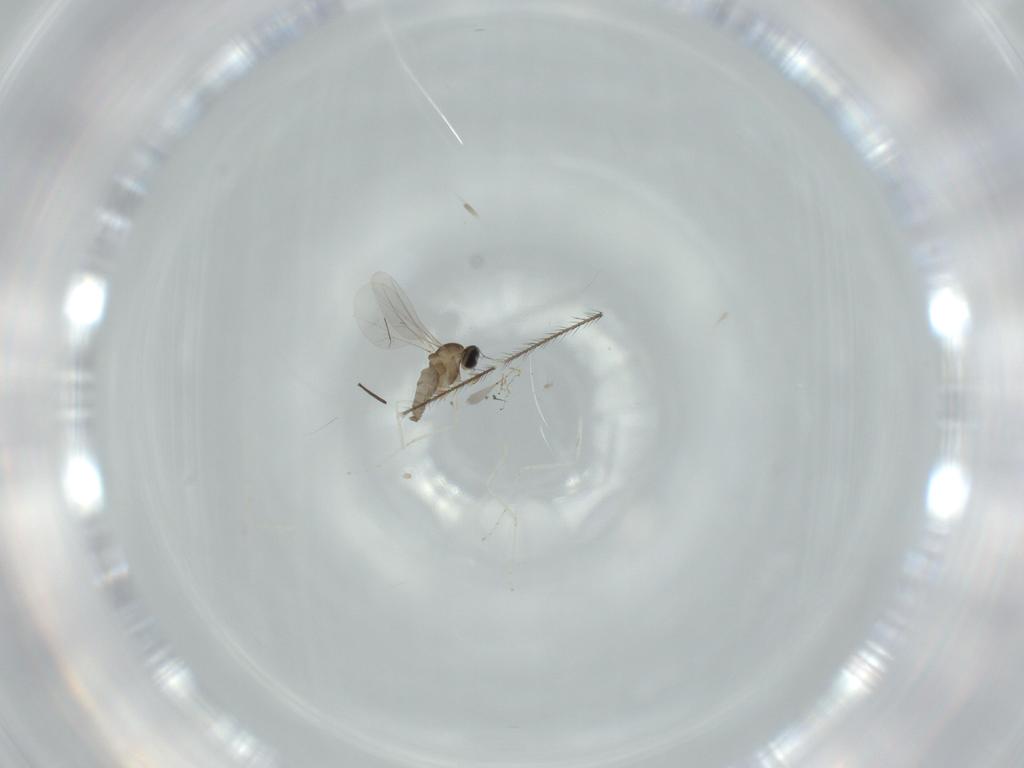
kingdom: Animalia
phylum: Arthropoda
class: Insecta
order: Diptera
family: Cecidomyiidae
